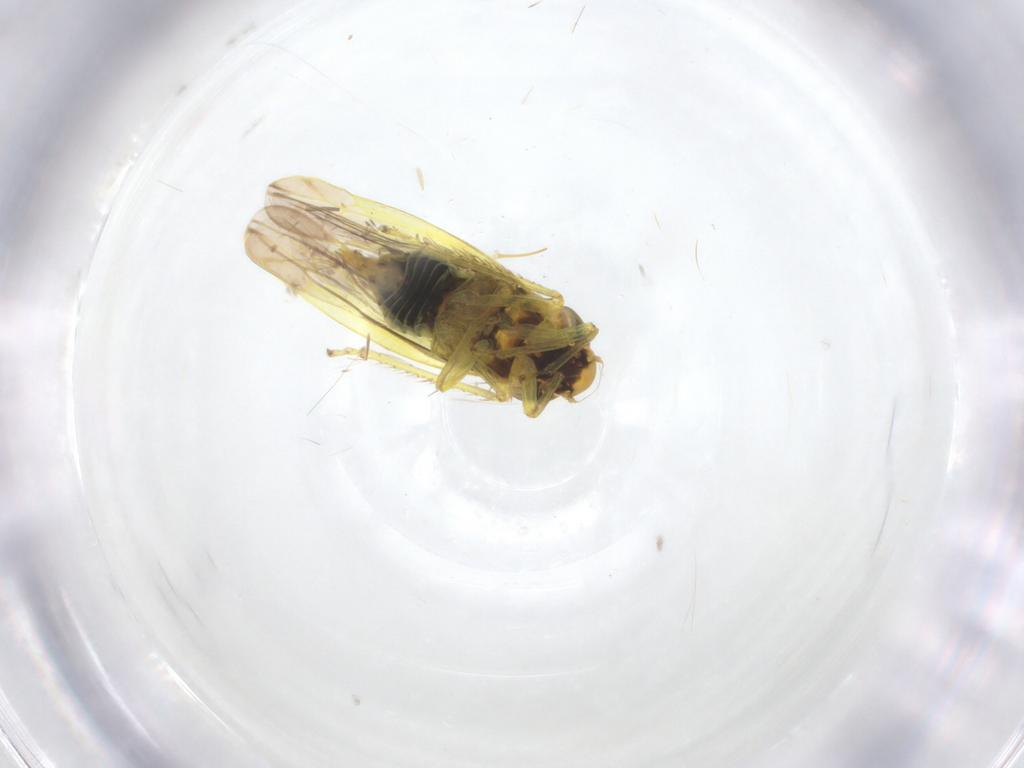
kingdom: Animalia
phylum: Arthropoda
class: Insecta
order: Hemiptera
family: Cicadellidae
